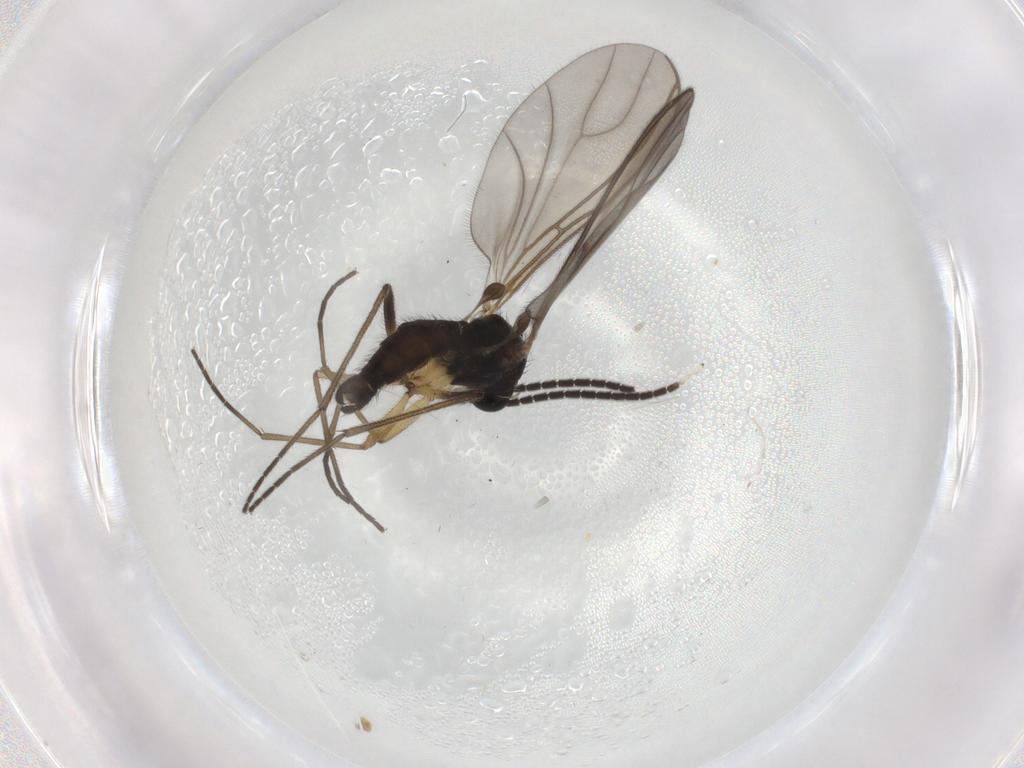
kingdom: Animalia
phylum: Arthropoda
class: Insecta
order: Diptera
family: Sciaridae
